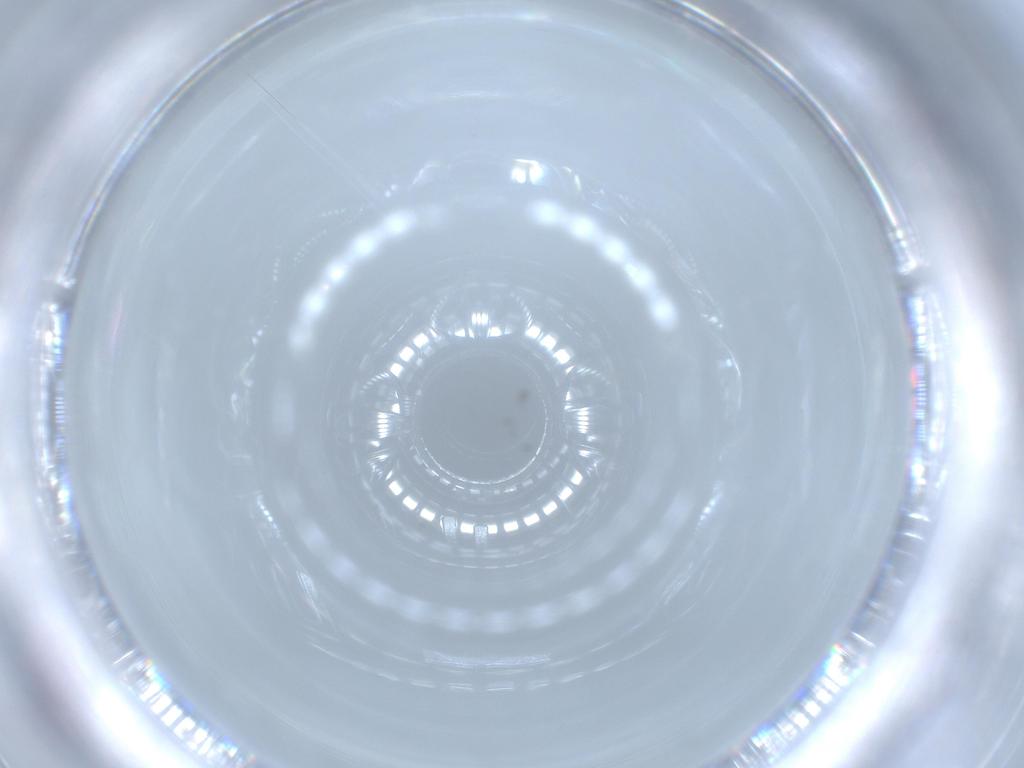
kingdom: Animalia
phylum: Arthropoda
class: Insecta
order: Diptera
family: Cecidomyiidae
